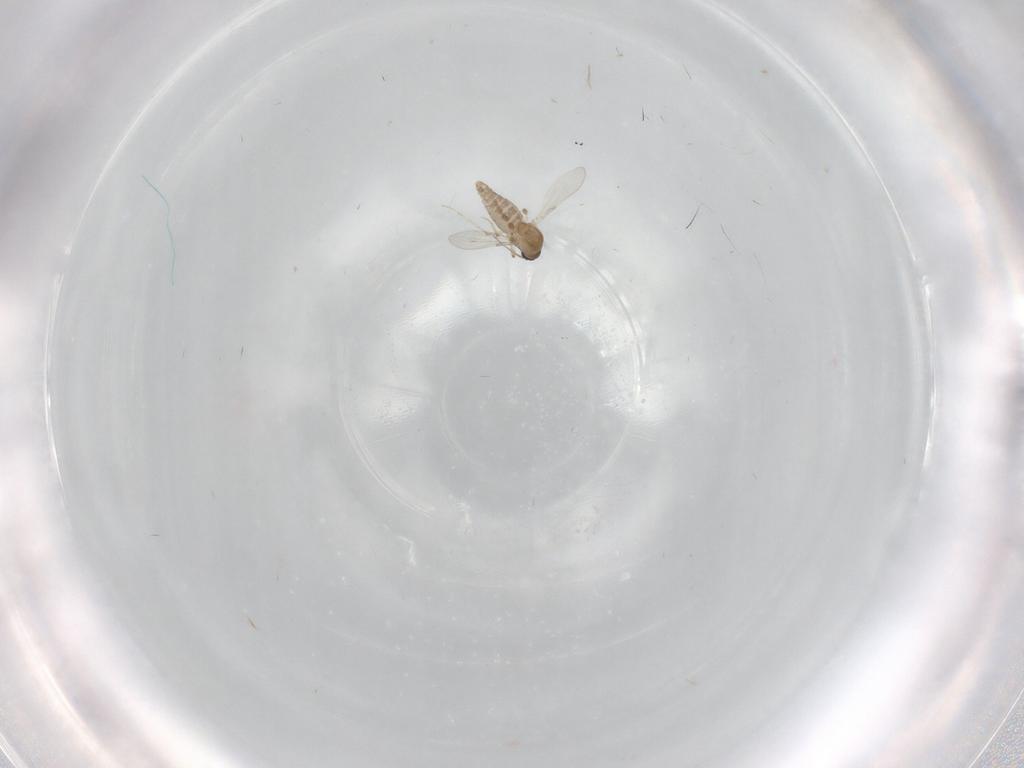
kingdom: Animalia
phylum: Arthropoda
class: Insecta
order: Diptera
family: Ceratopogonidae
